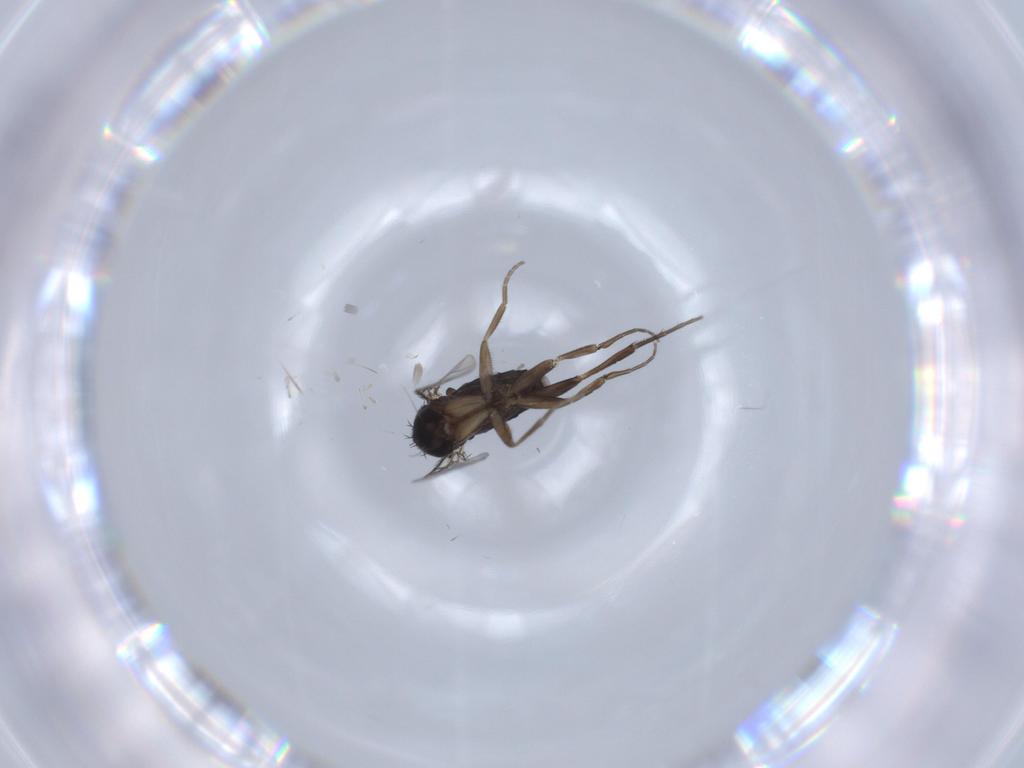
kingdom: Animalia
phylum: Arthropoda
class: Insecta
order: Diptera
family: Phoridae
